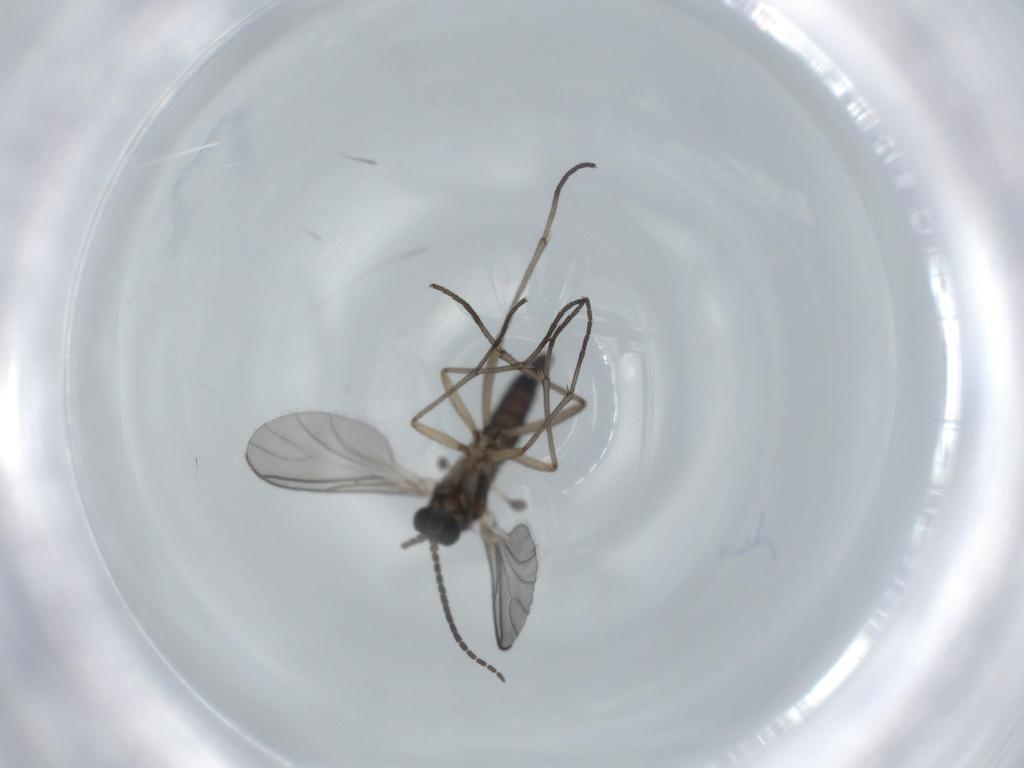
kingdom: Animalia
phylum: Arthropoda
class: Insecta
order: Diptera
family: Sciaridae
